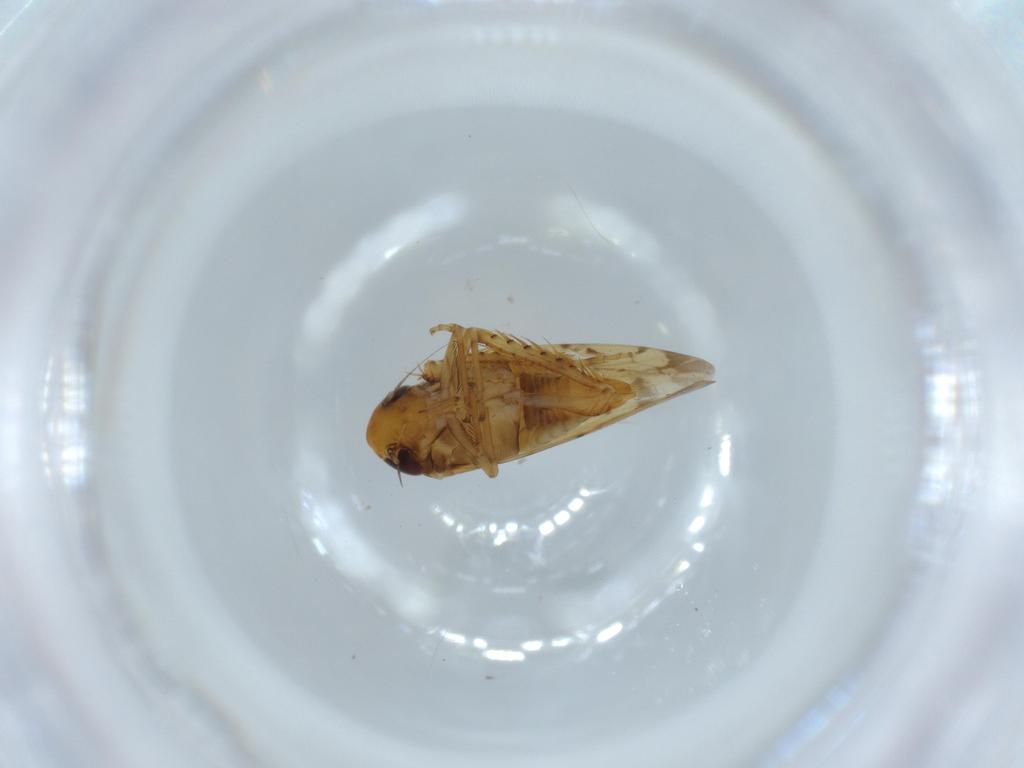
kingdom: Animalia
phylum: Arthropoda
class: Insecta
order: Hemiptera
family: Cicadellidae
